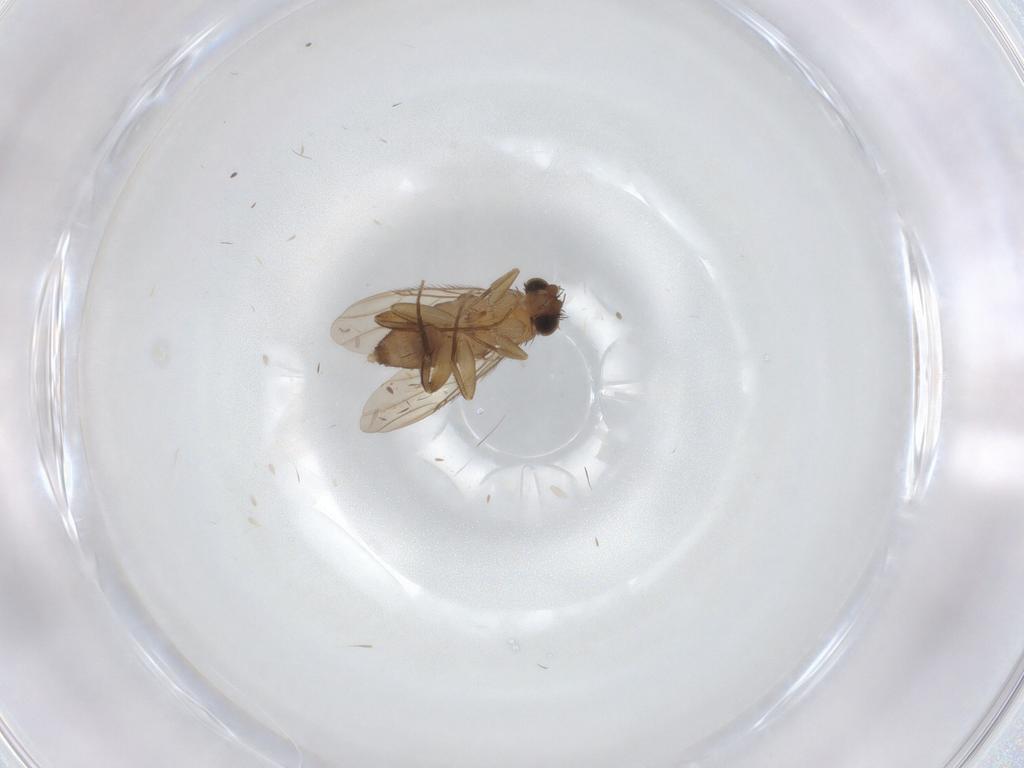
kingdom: Animalia
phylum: Arthropoda
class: Insecta
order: Diptera
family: Phoridae
